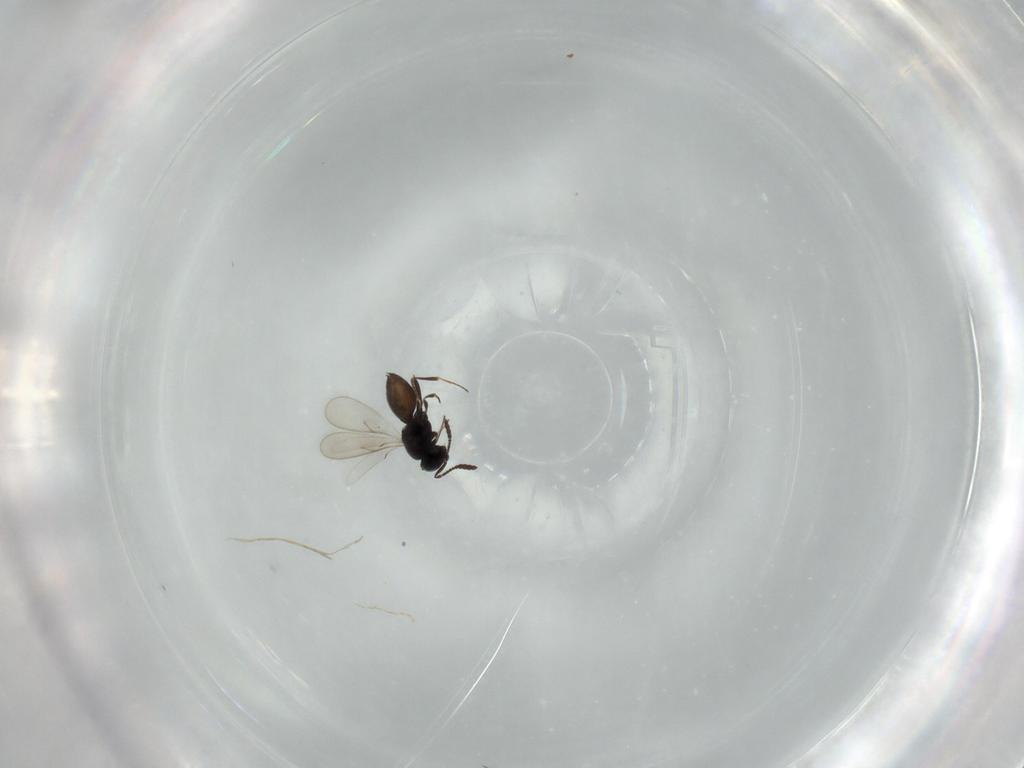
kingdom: Animalia
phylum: Arthropoda
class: Insecta
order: Hymenoptera
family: Scelionidae
